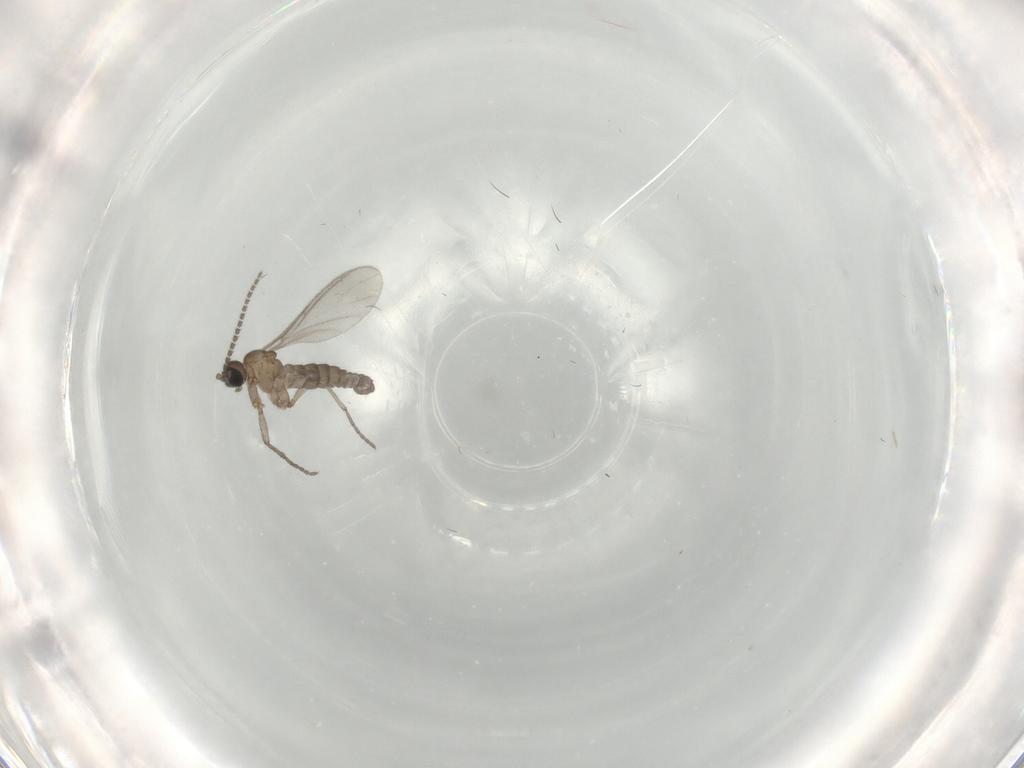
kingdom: Animalia
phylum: Arthropoda
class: Insecta
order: Diptera
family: Sciaridae
